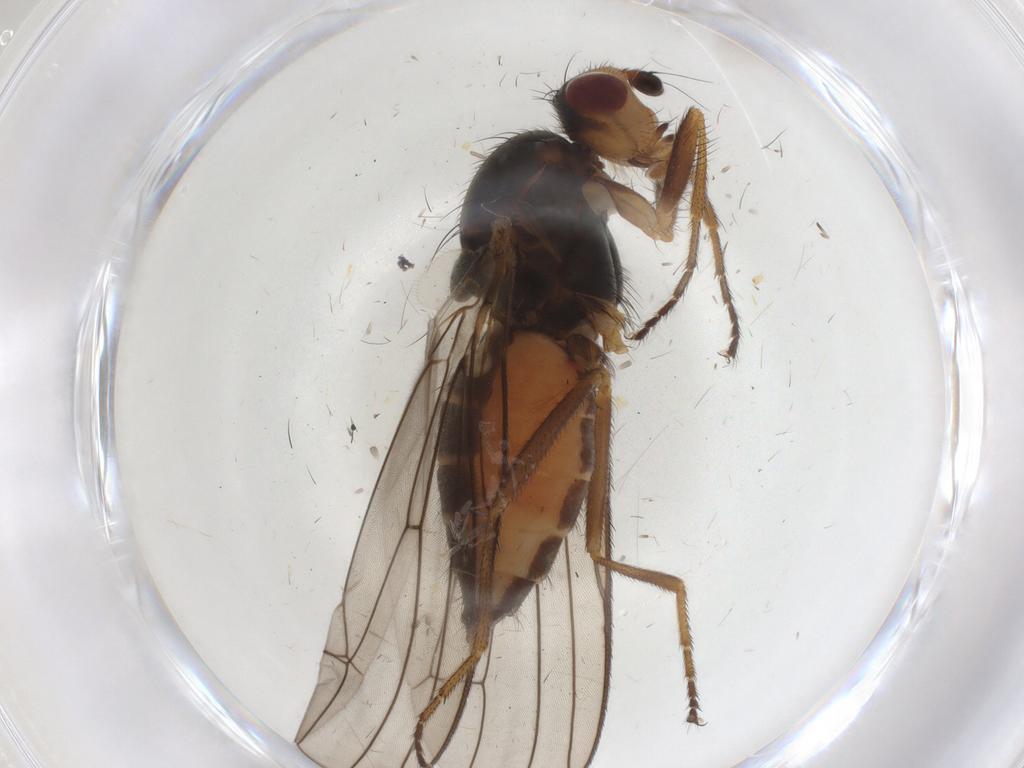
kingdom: Animalia
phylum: Arthropoda
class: Insecta
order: Diptera
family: Heleomyzidae
